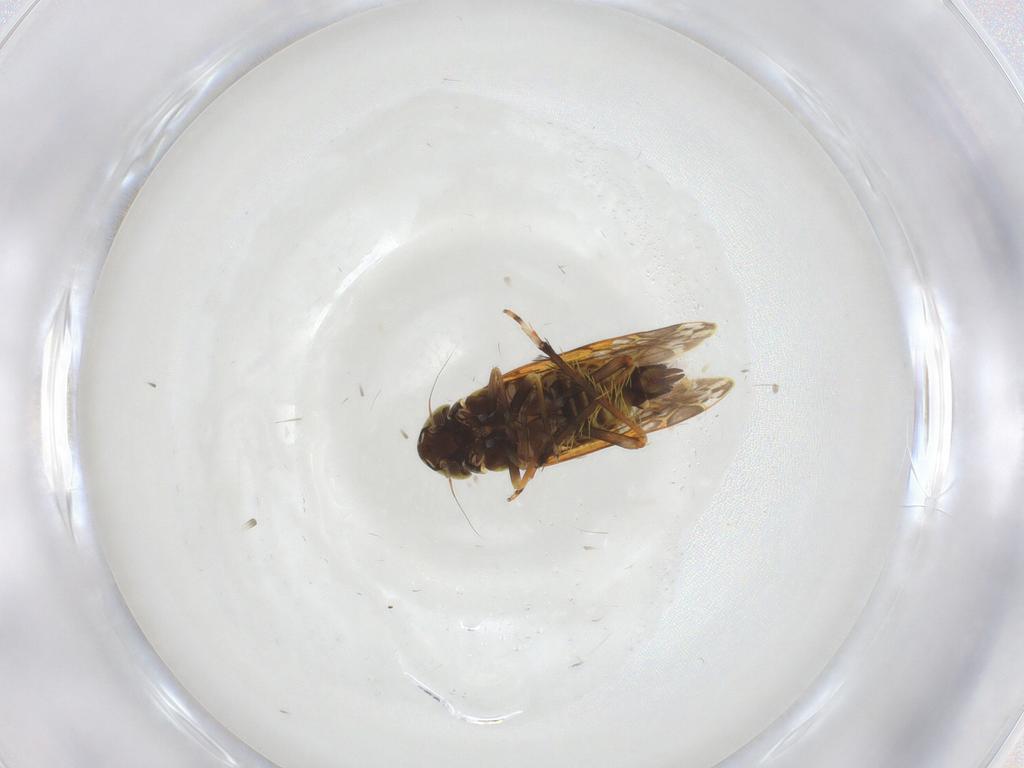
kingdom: Animalia
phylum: Arthropoda
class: Insecta
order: Hemiptera
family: Cicadellidae
